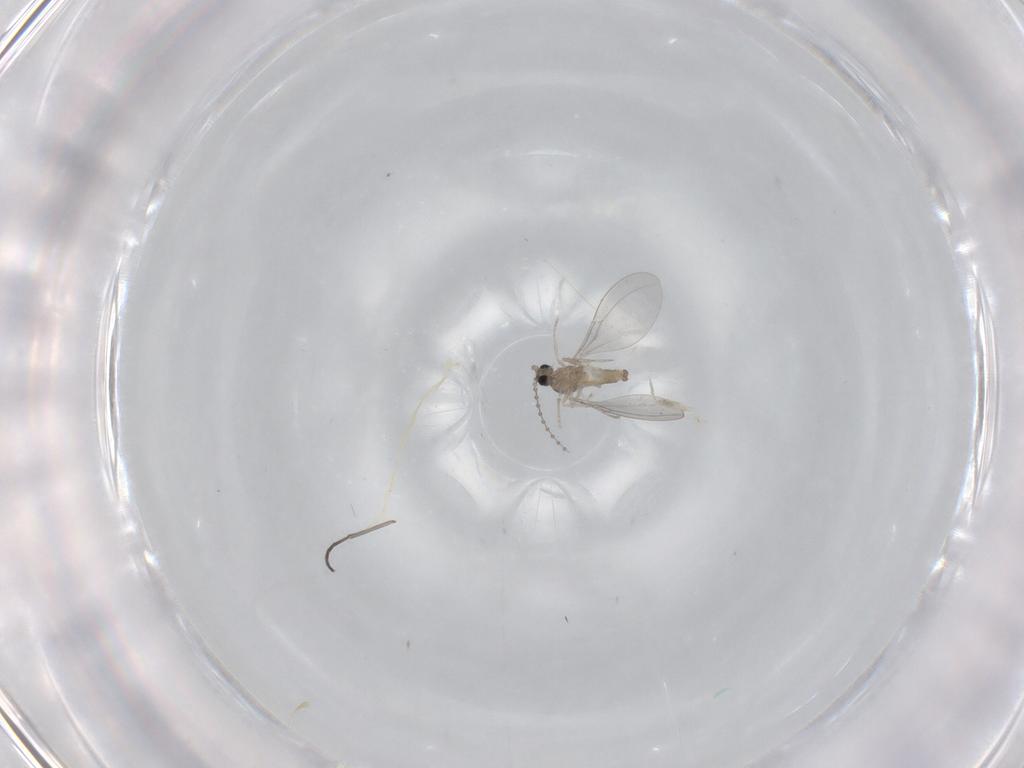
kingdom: Animalia
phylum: Arthropoda
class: Insecta
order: Diptera
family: Cecidomyiidae
